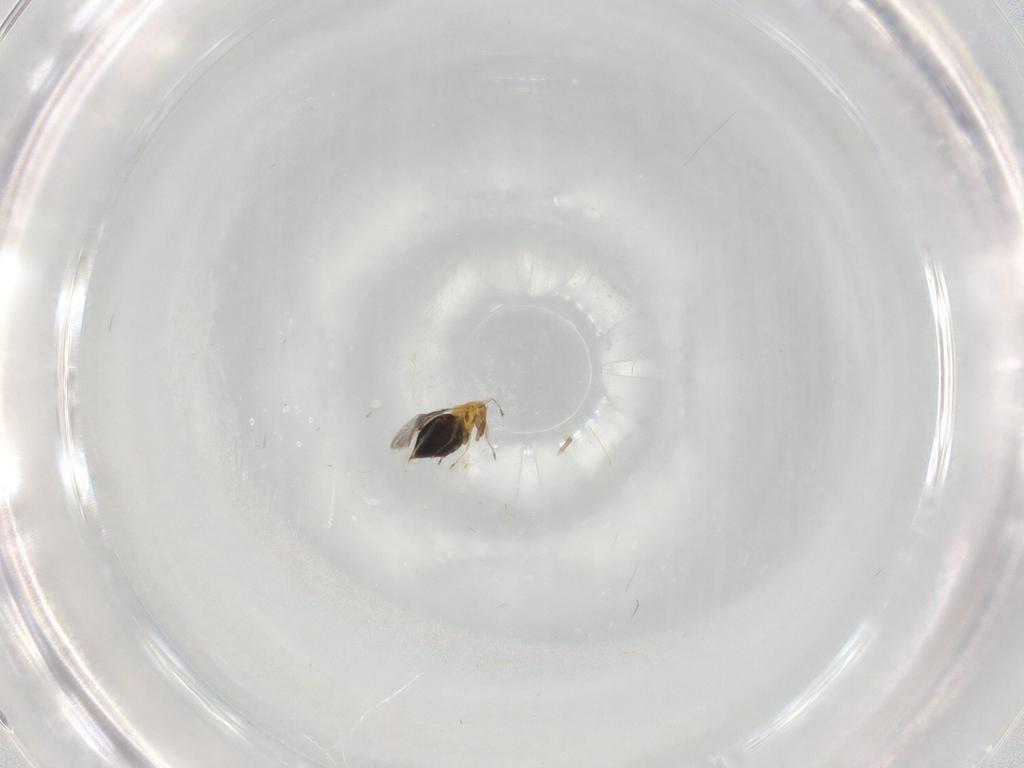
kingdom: Animalia
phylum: Arthropoda
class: Insecta
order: Hymenoptera
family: Trichogrammatidae
